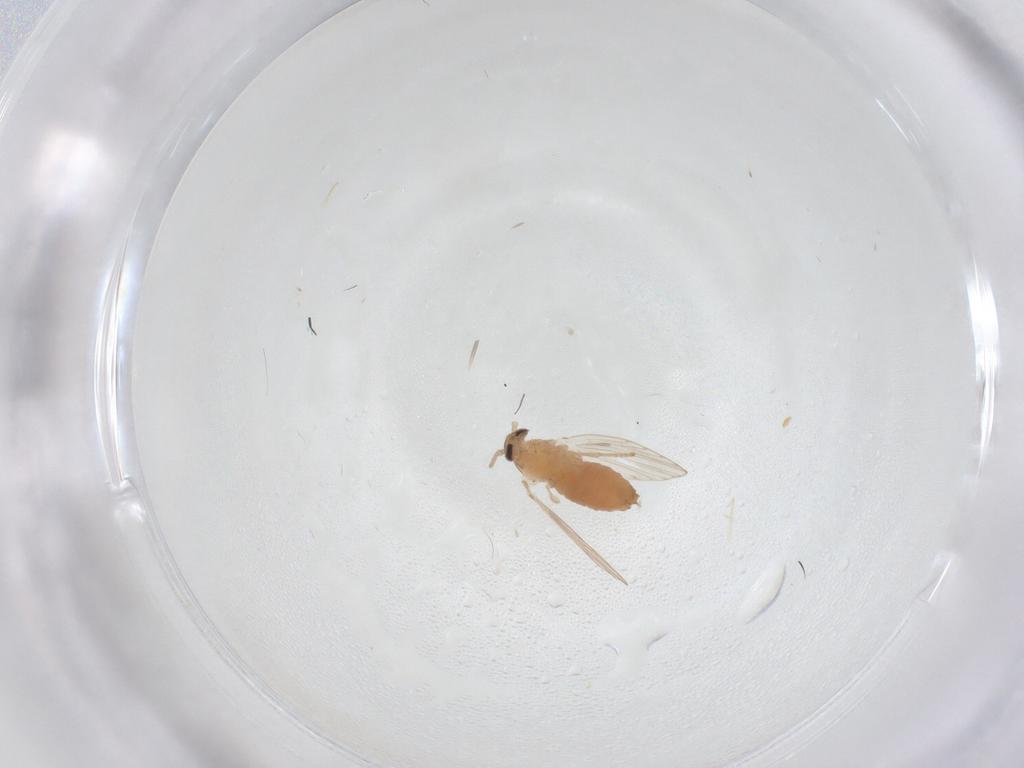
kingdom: Animalia
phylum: Arthropoda
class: Insecta
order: Diptera
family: Psychodidae
